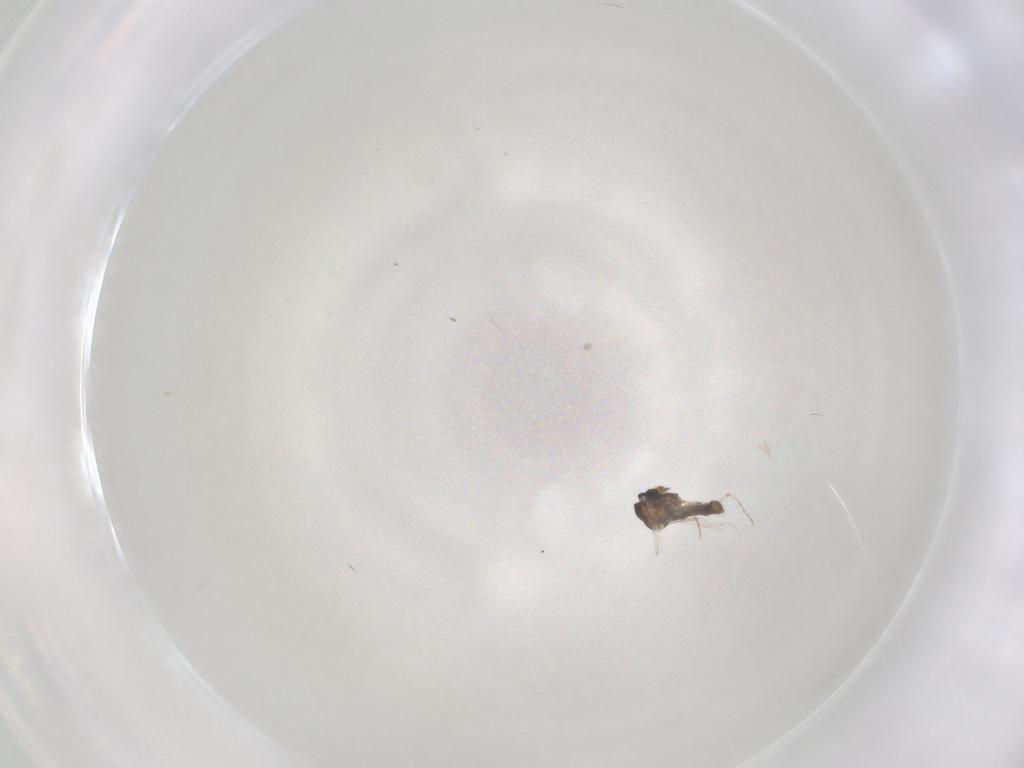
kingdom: Animalia
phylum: Arthropoda
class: Insecta
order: Diptera
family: Ceratopogonidae
